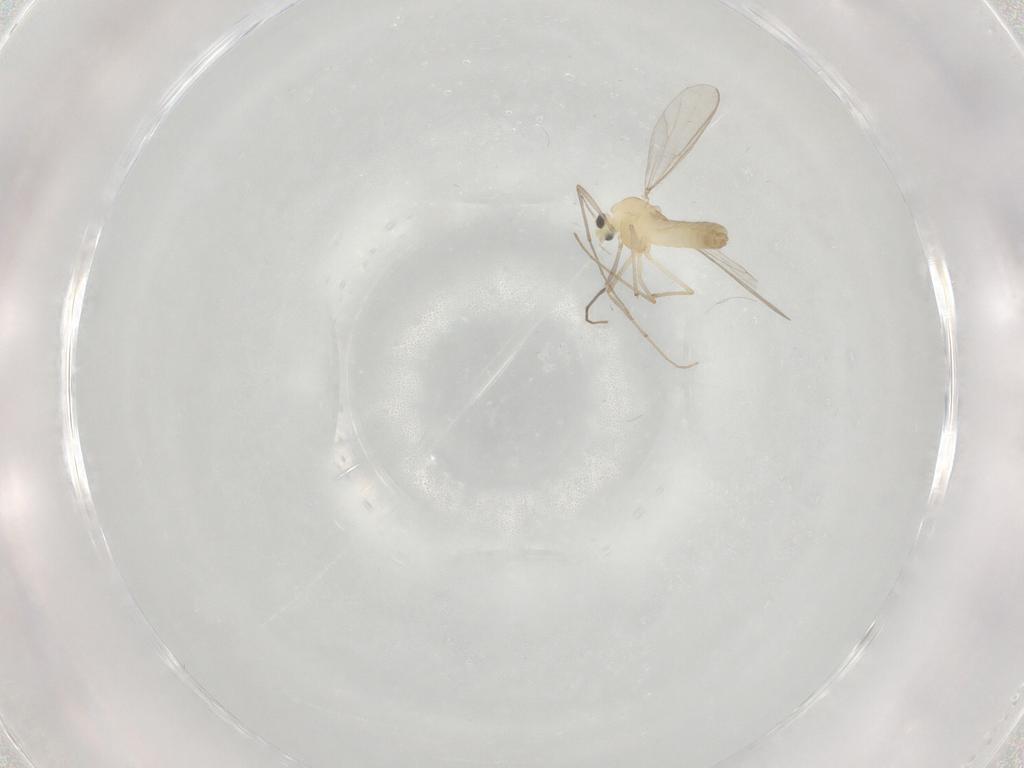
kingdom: Animalia
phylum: Arthropoda
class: Insecta
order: Diptera
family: Chironomidae
